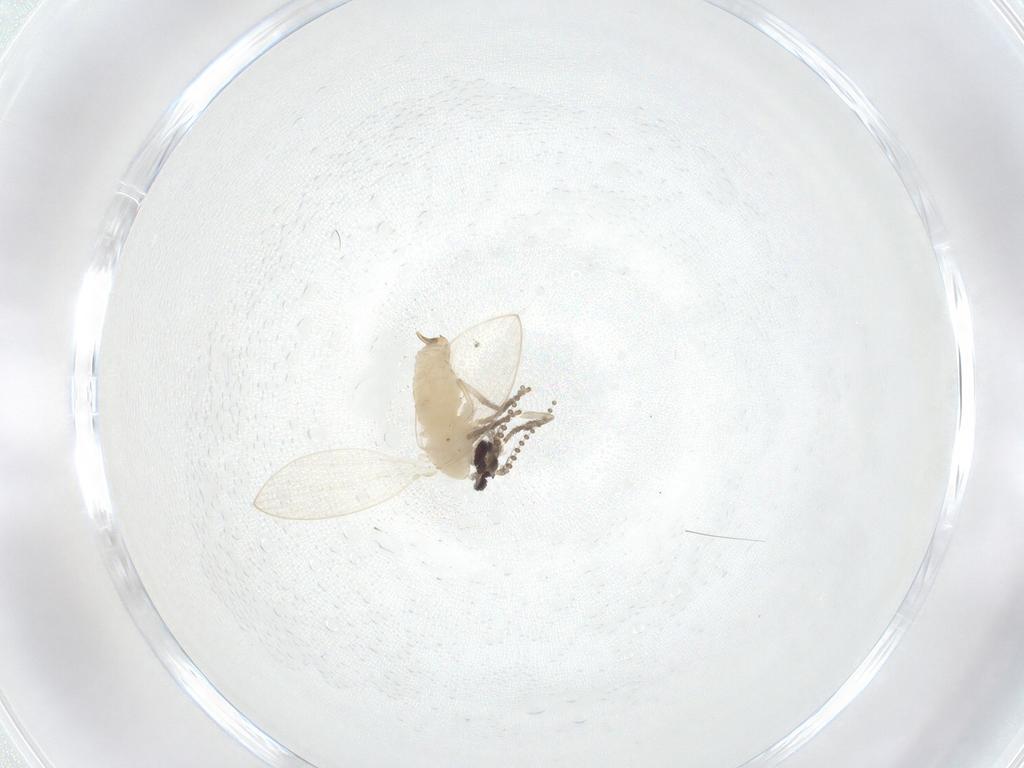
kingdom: Animalia
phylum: Arthropoda
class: Insecta
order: Diptera
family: Psychodidae
